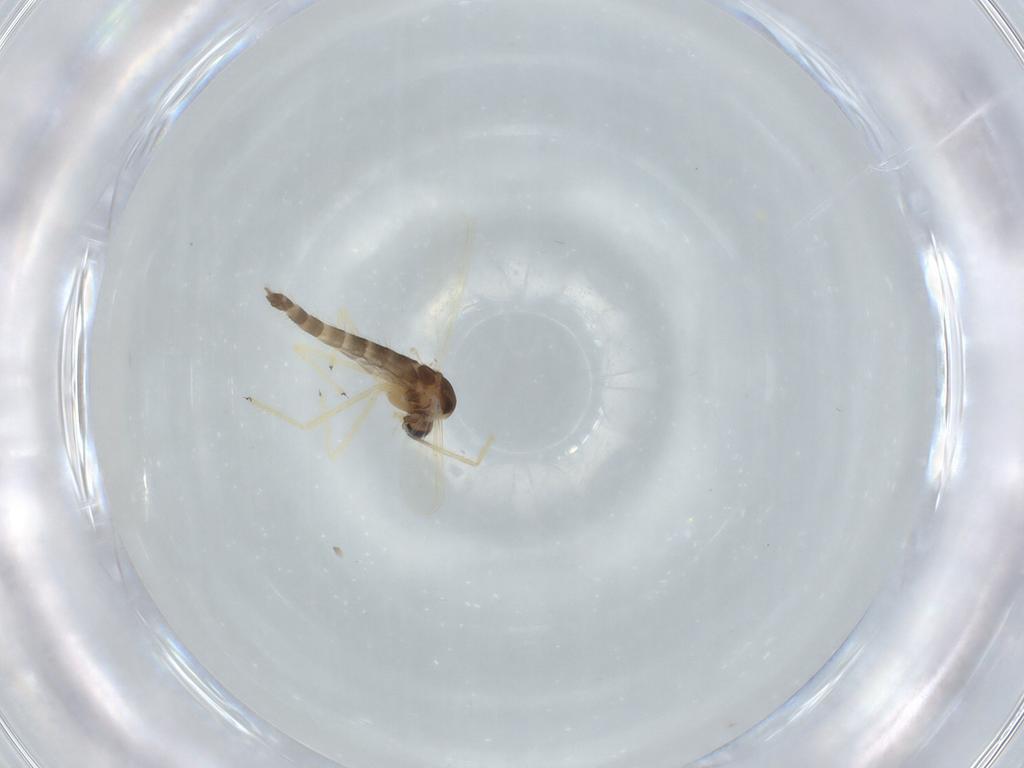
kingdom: Animalia
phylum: Arthropoda
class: Insecta
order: Diptera
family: Chironomidae
